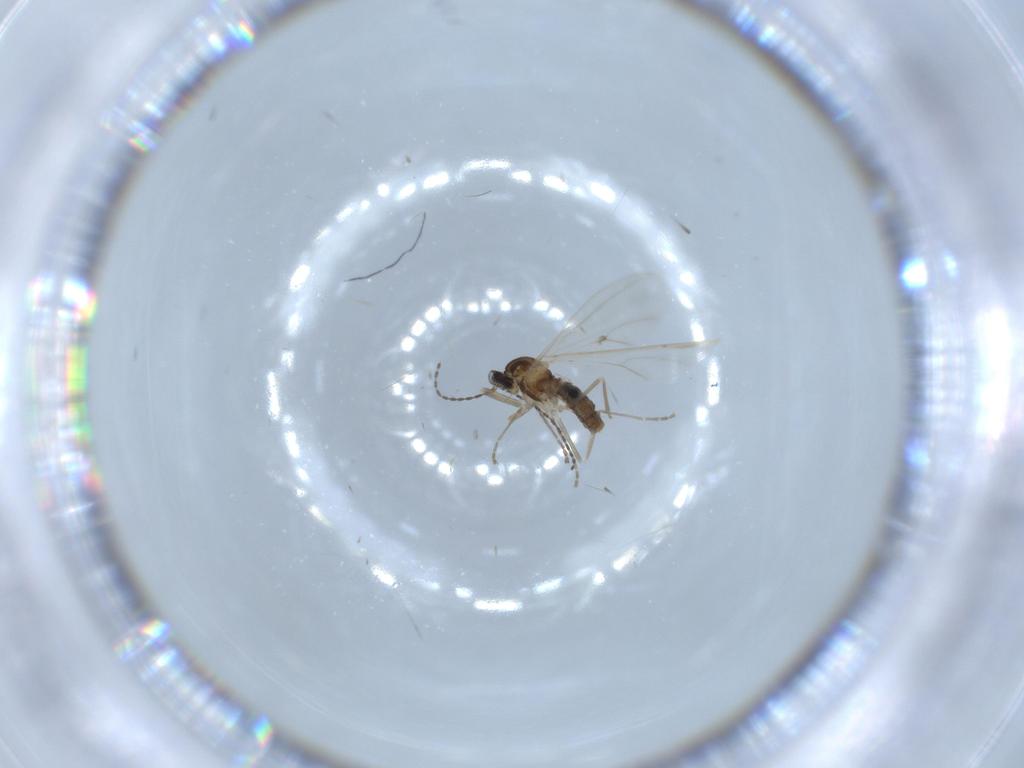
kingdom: Animalia
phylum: Arthropoda
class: Insecta
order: Diptera
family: Cecidomyiidae
